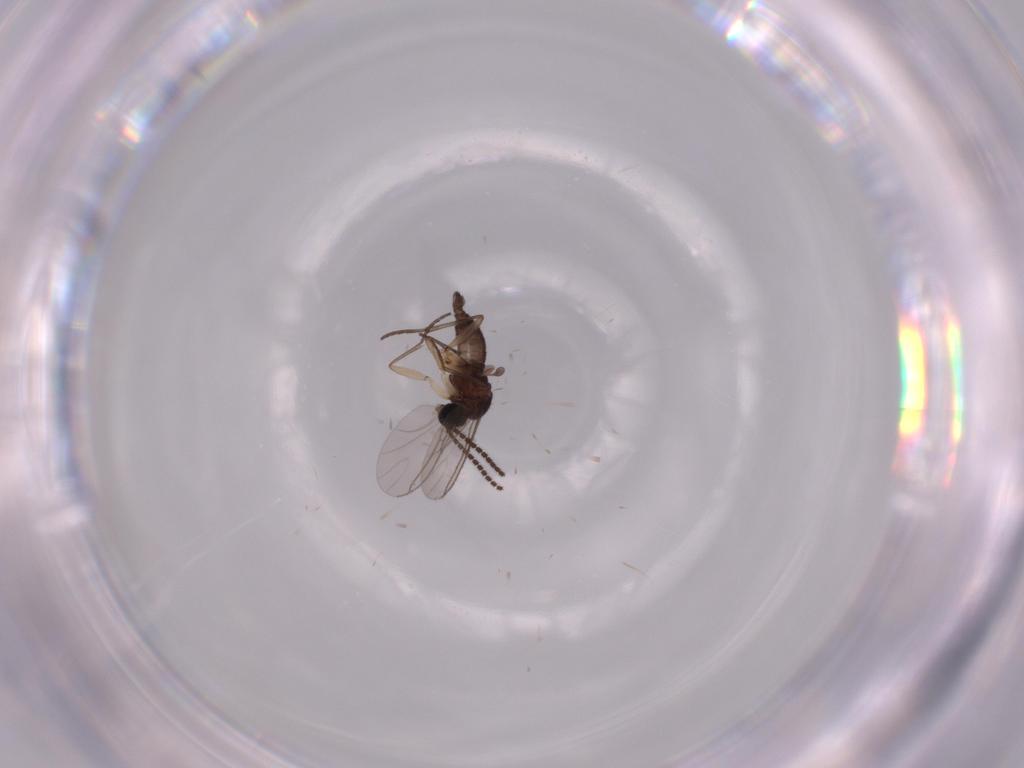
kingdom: Animalia
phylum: Arthropoda
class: Insecta
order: Diptera
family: Sciaridae
